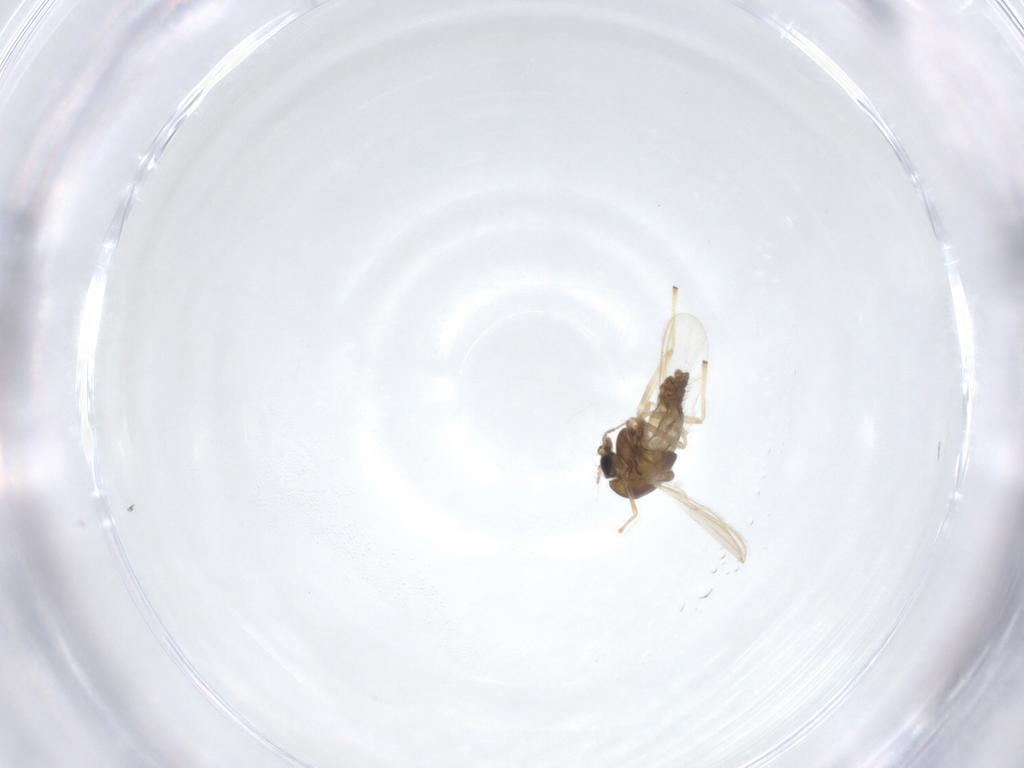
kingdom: Animalia
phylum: Arthropoda
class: Insecta
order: Diptera
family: Chironomidae
